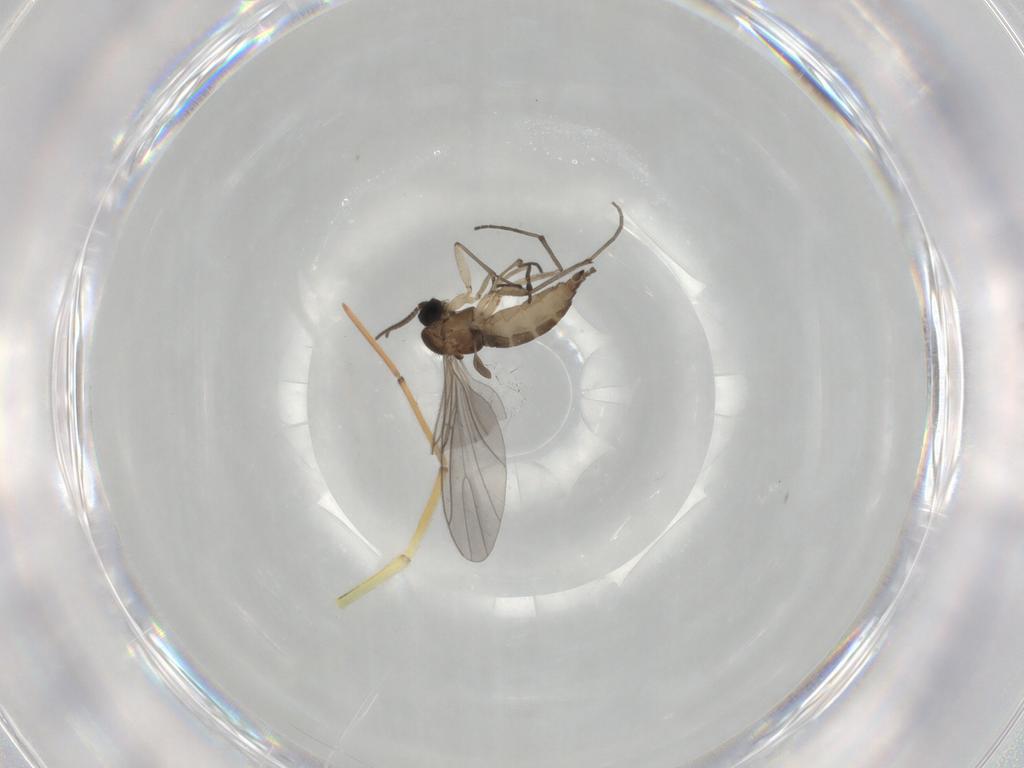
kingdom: Animalia
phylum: Arthropoda
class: Insecta
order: Diptera
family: Sciaridae
